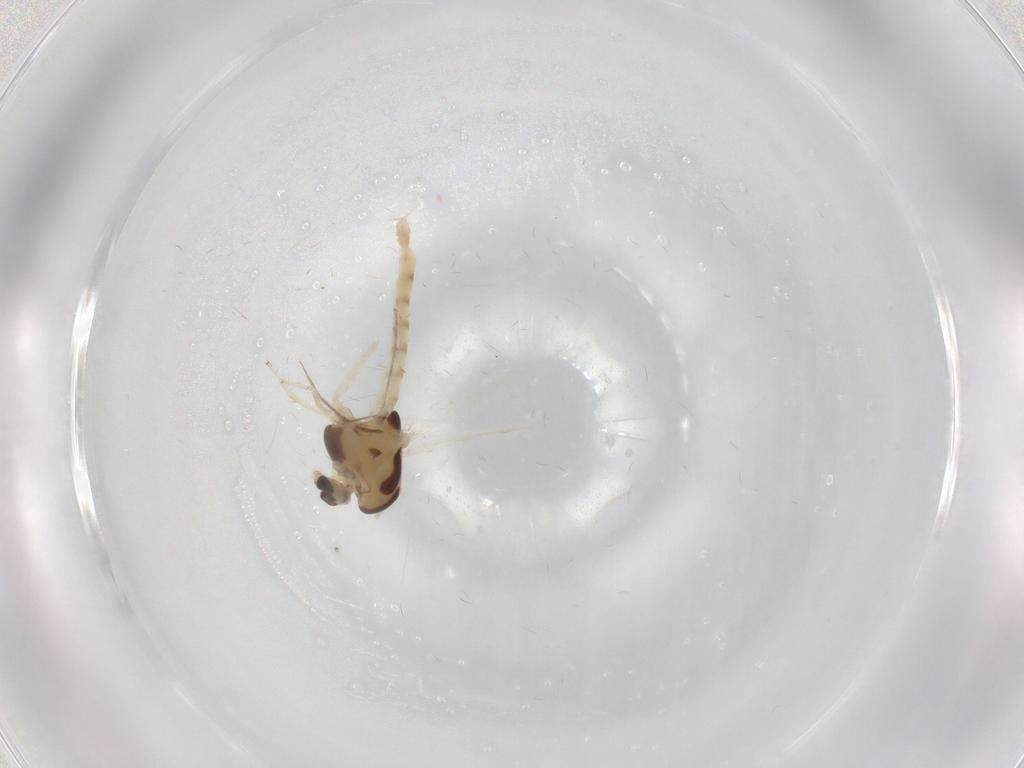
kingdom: Animalia
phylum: Arthropoda
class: Insecta
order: Diptera
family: Chironomidae
